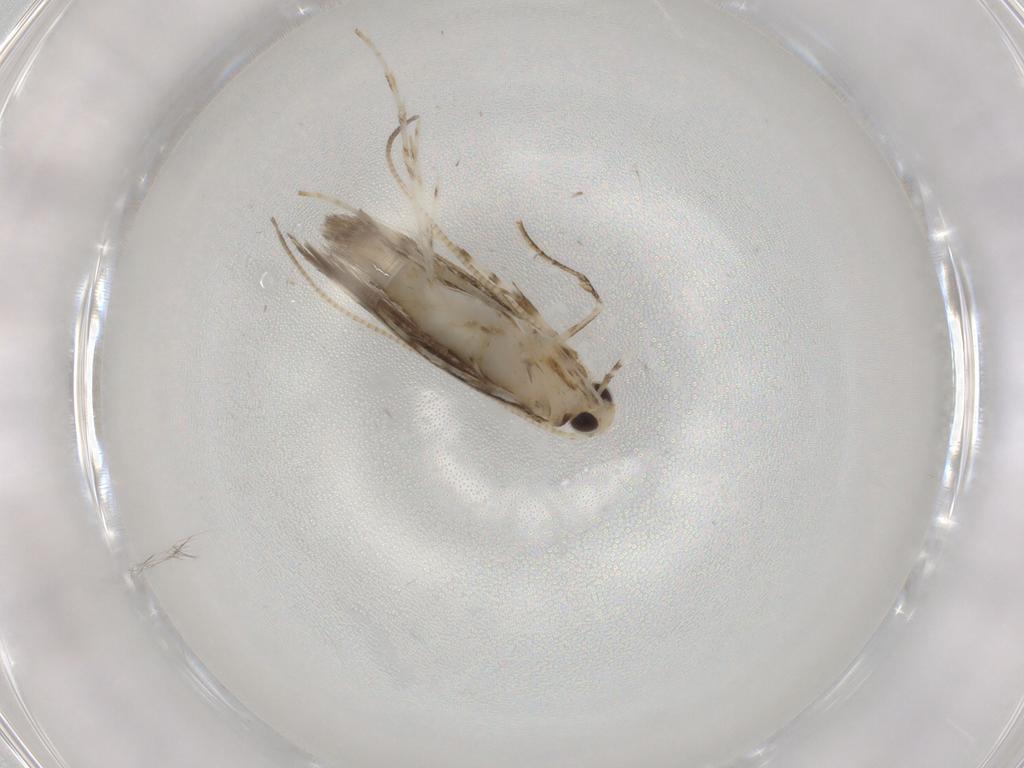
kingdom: Animalia
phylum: Arthropoda
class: Insecta
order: Lepidoptera
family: Gracillariidae
